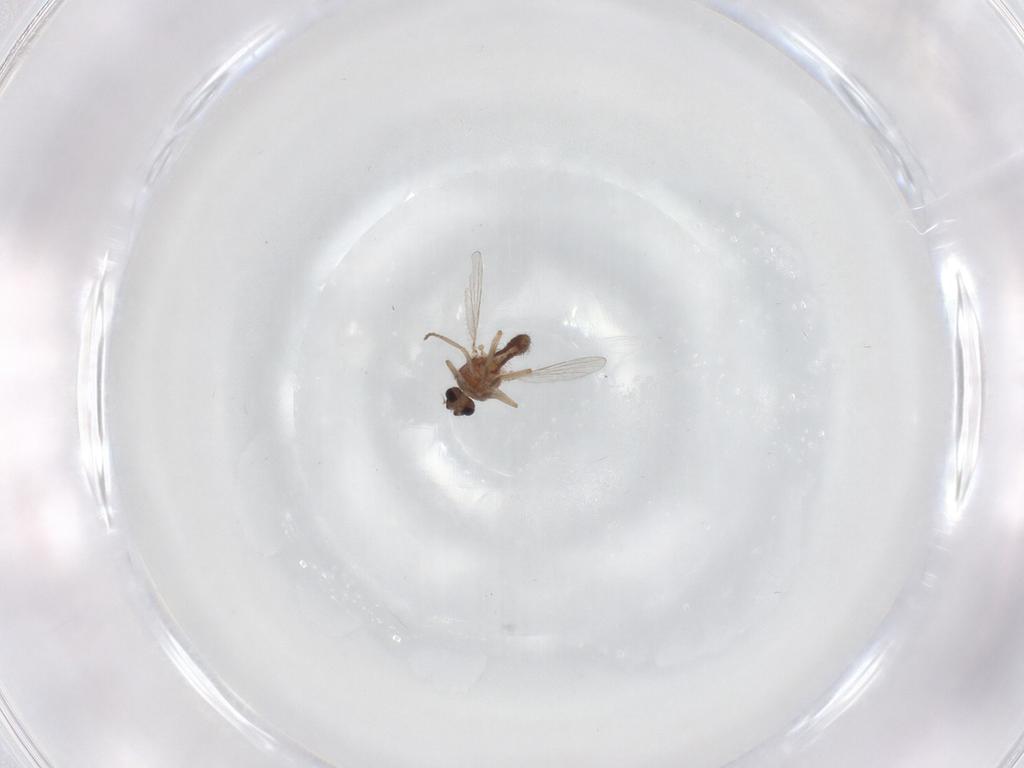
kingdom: Animalia
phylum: Arthropoda
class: Insecta
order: Diptera
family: Ceratopogonidae
